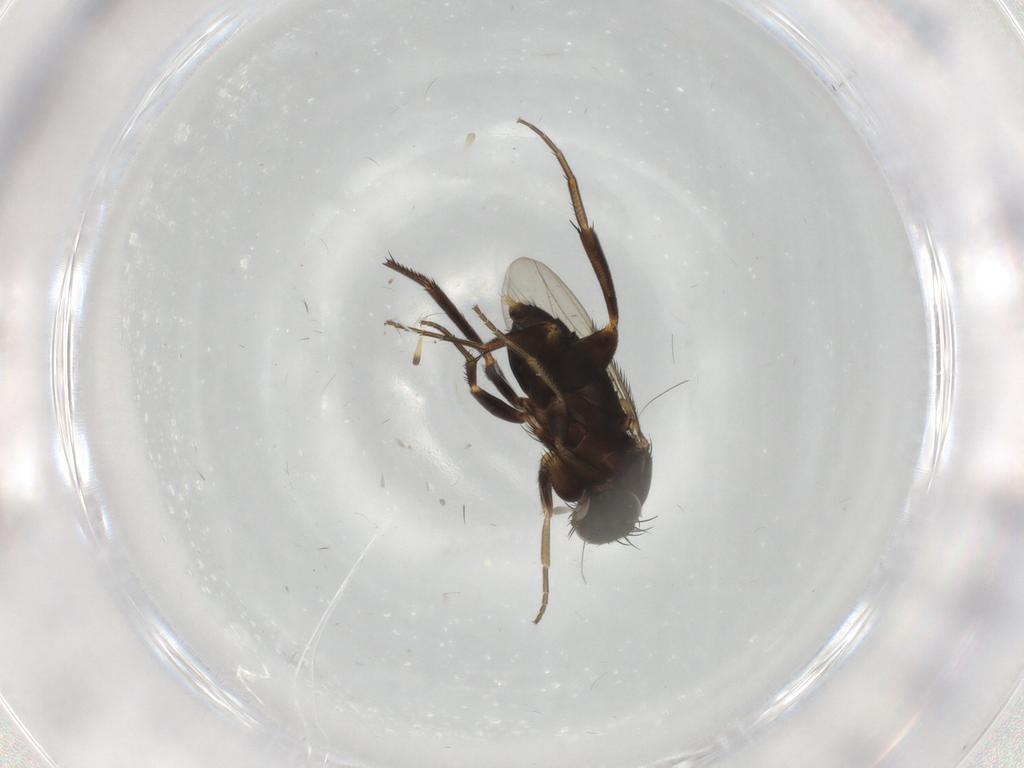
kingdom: Animalia
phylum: Arthropoda
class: Insecta
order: Diptera
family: Phoridae
